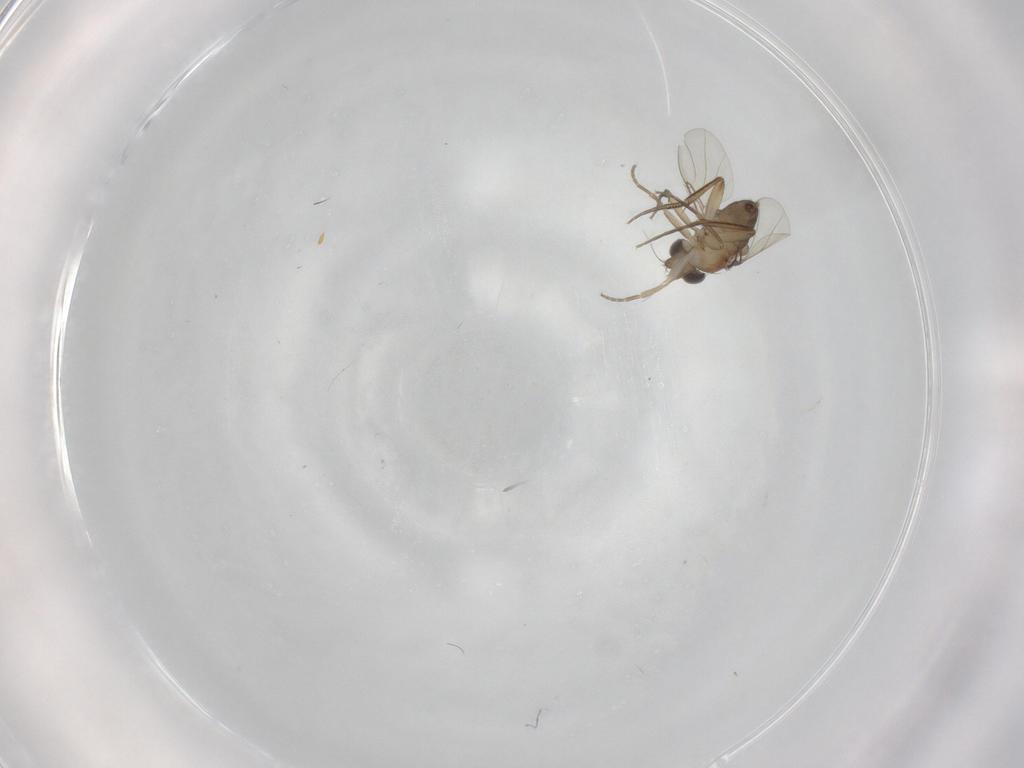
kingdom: Animalia
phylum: Arthropoda
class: Insecta
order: Diptera
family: Phoridae
